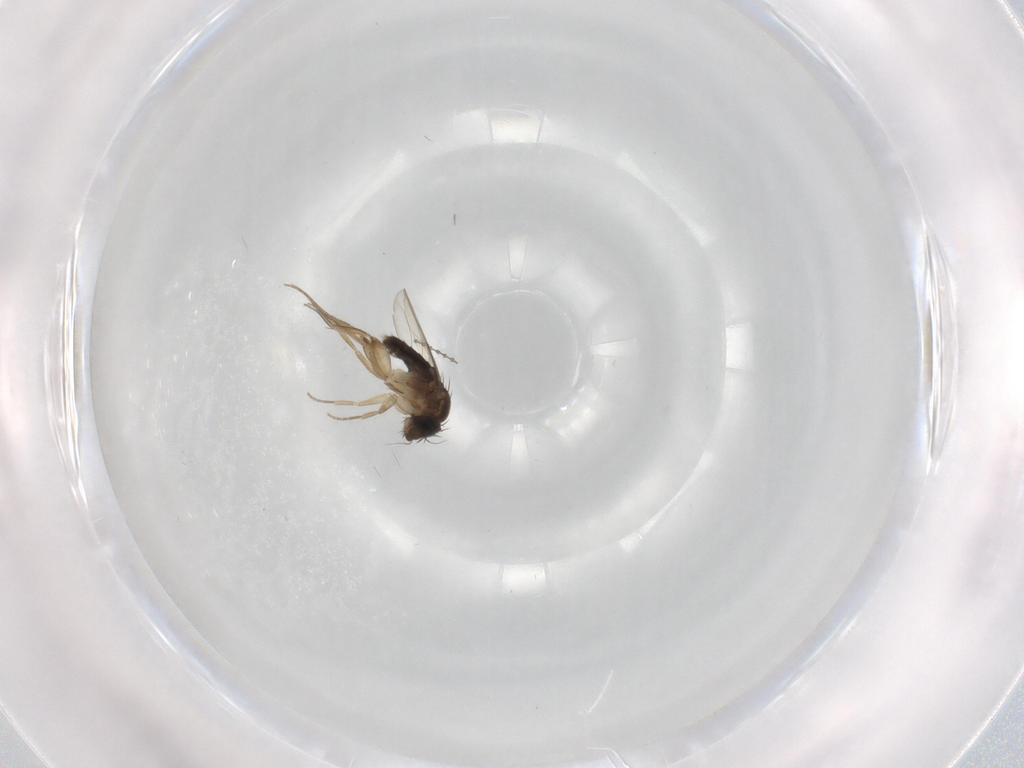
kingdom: Animalia
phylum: Arthropoda
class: Insecta
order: Diptera
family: Phoridae
